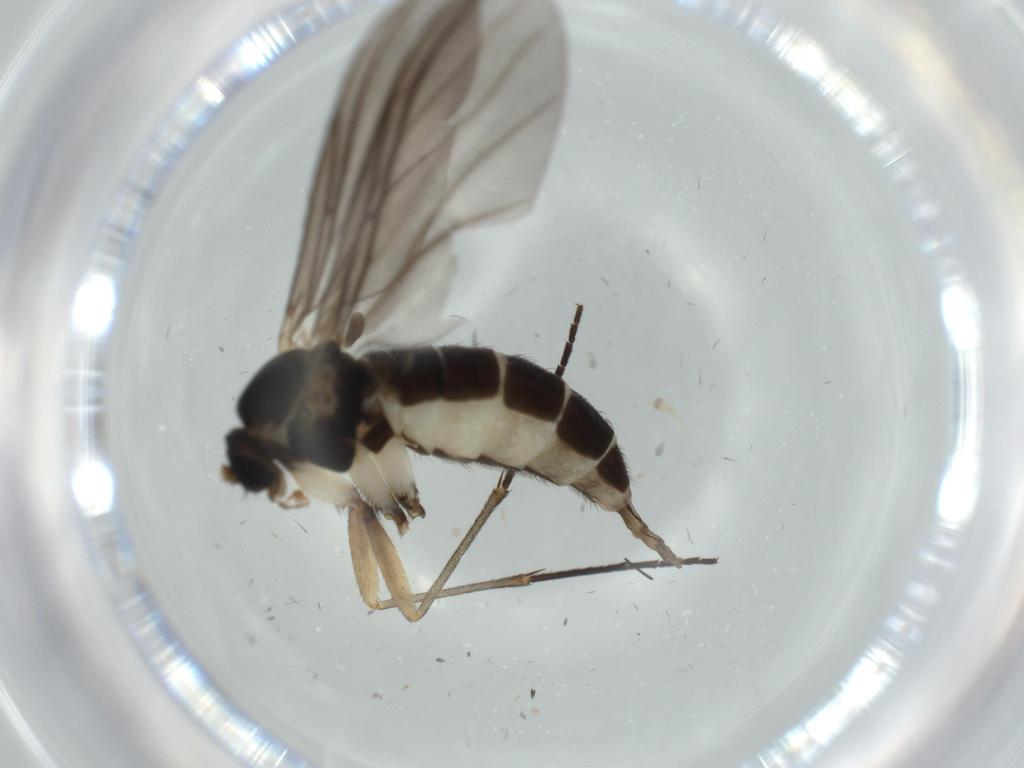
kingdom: Animalia
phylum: Arthropoda
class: Insecta
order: Diptera
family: Sciaridae
